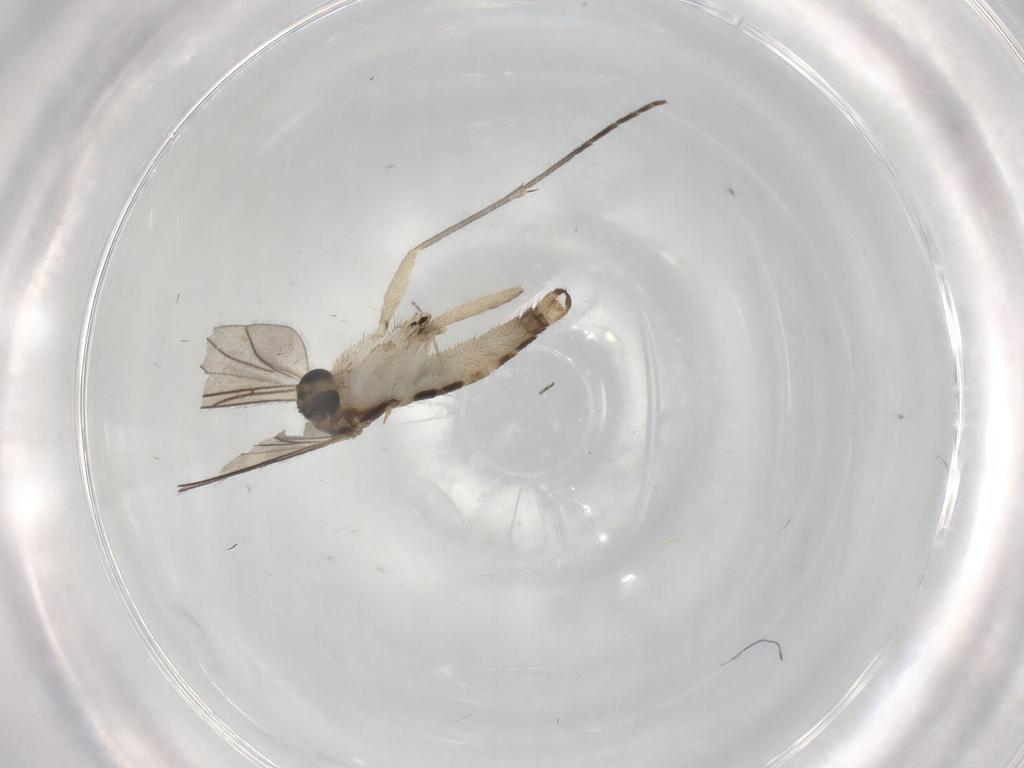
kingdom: Animalia
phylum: Arthropoda
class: Insecta
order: Diptera
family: Sciaridae
